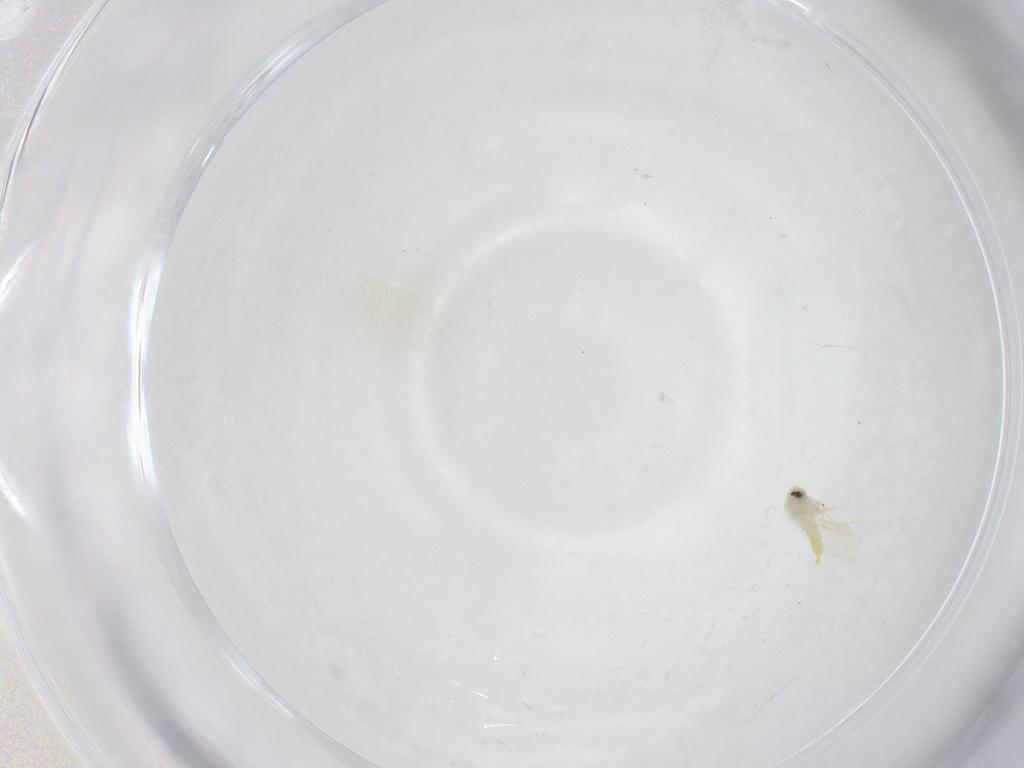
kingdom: Animalia
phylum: Arthropoda
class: Insecta
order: Hemiptera
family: Aleyrodidae
